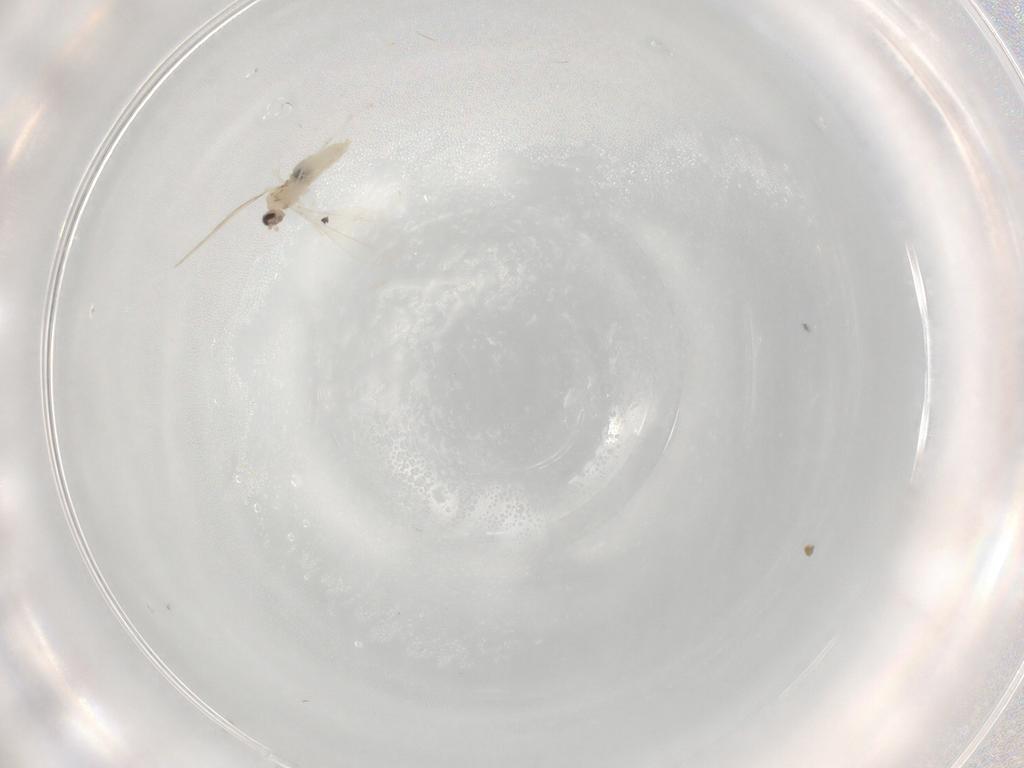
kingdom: Animalia
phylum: Arthropoda
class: Insecta
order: Diptera
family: Cecidomyiidae
